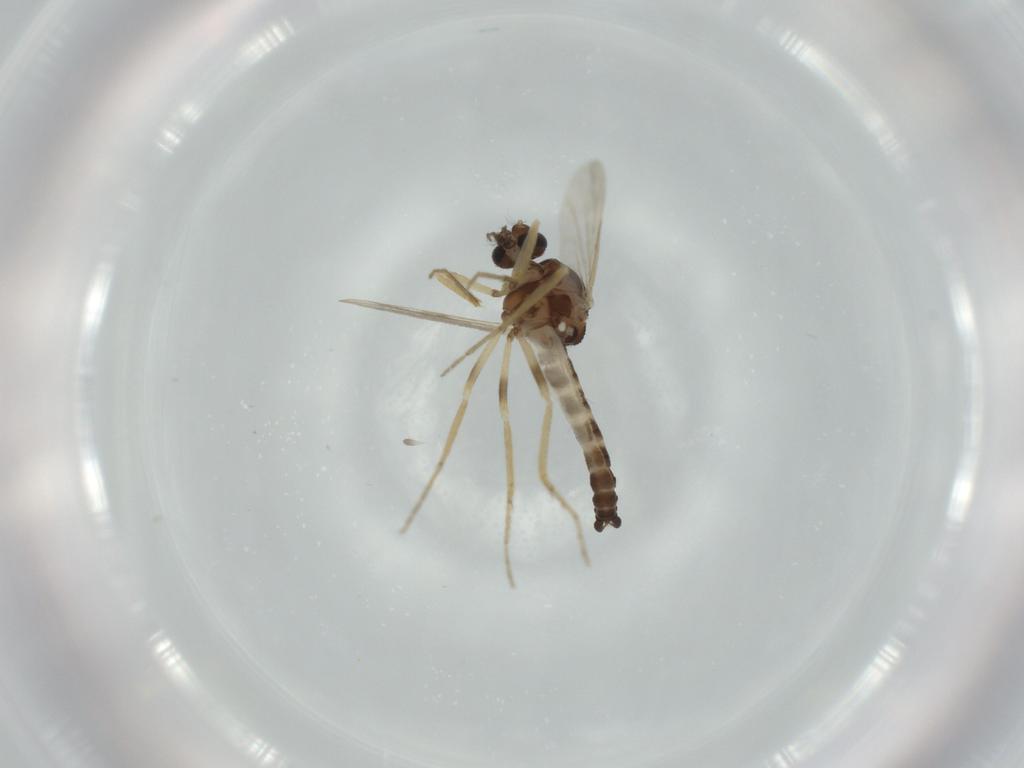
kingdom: Animalia
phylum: Arthropoda
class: Insecta
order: Diptera
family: Ceratopogonidae
